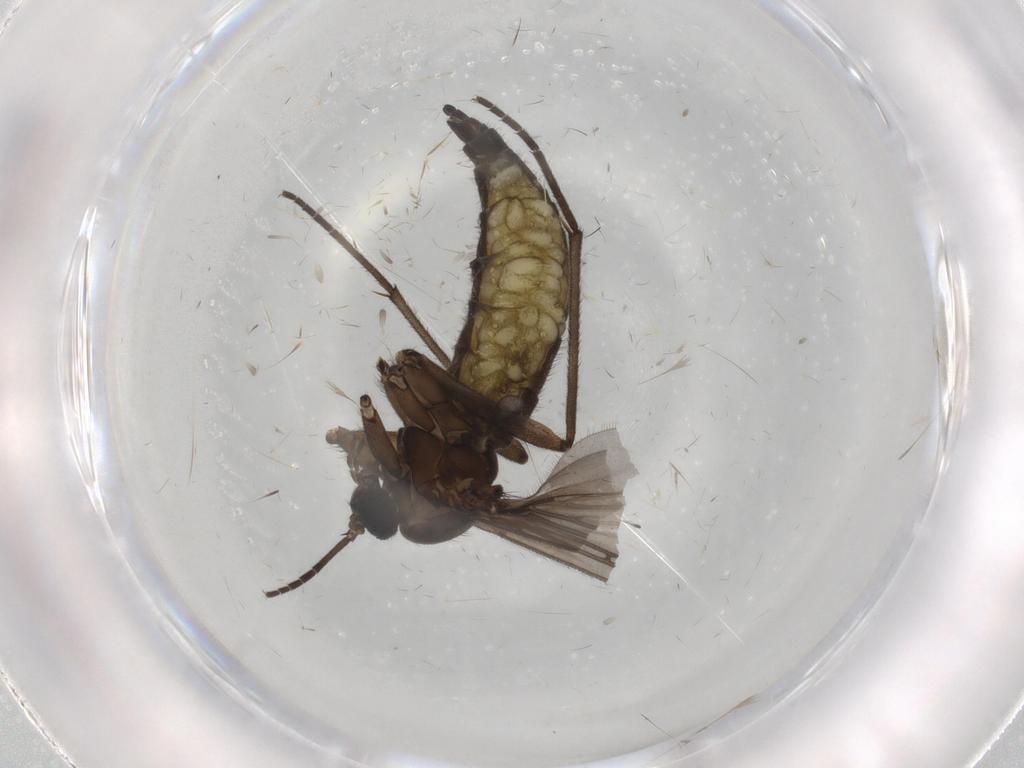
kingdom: Animalia
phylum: Arthropoda
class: Insecta
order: Diptera
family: Sciaridae
